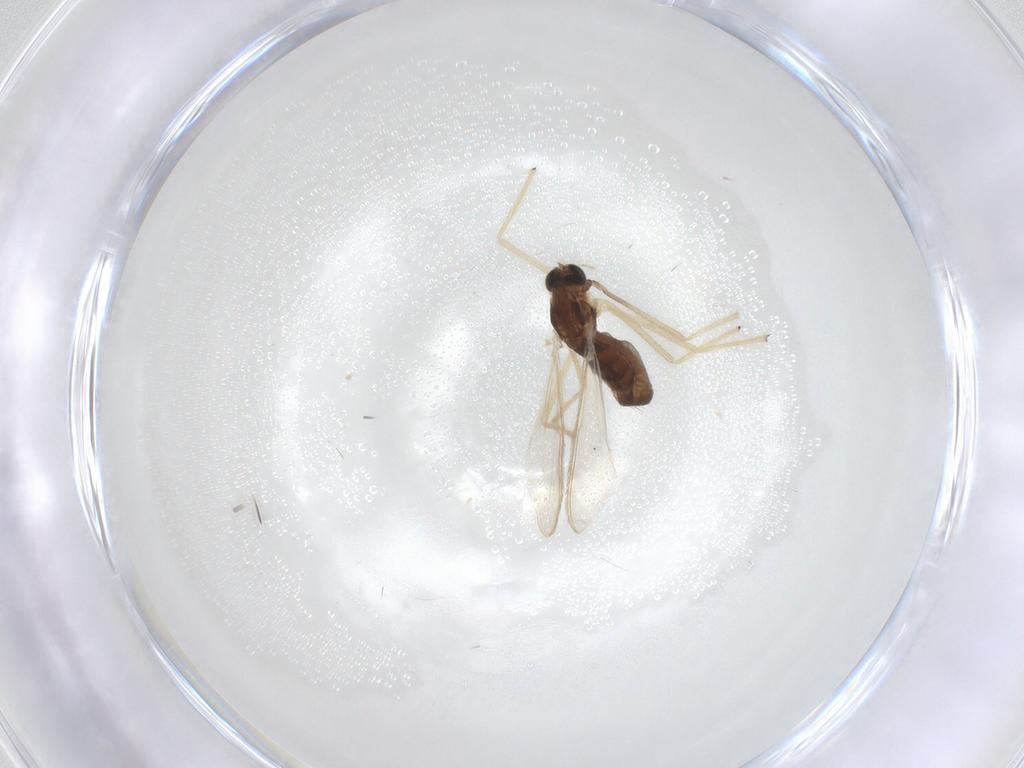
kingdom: Animalia
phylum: Arthropoda
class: Insecta
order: Diptera
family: Chironomidae
